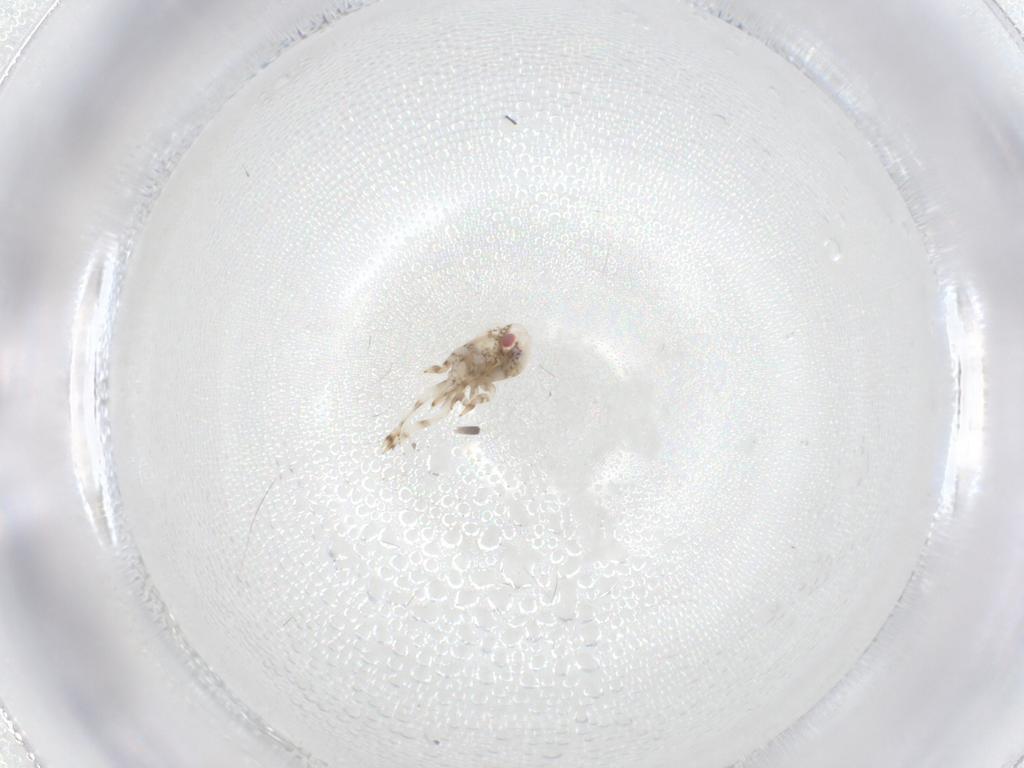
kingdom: Animalia
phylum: Arthropoda
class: Insecta
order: Hemiptera
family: Acanaloniidae
